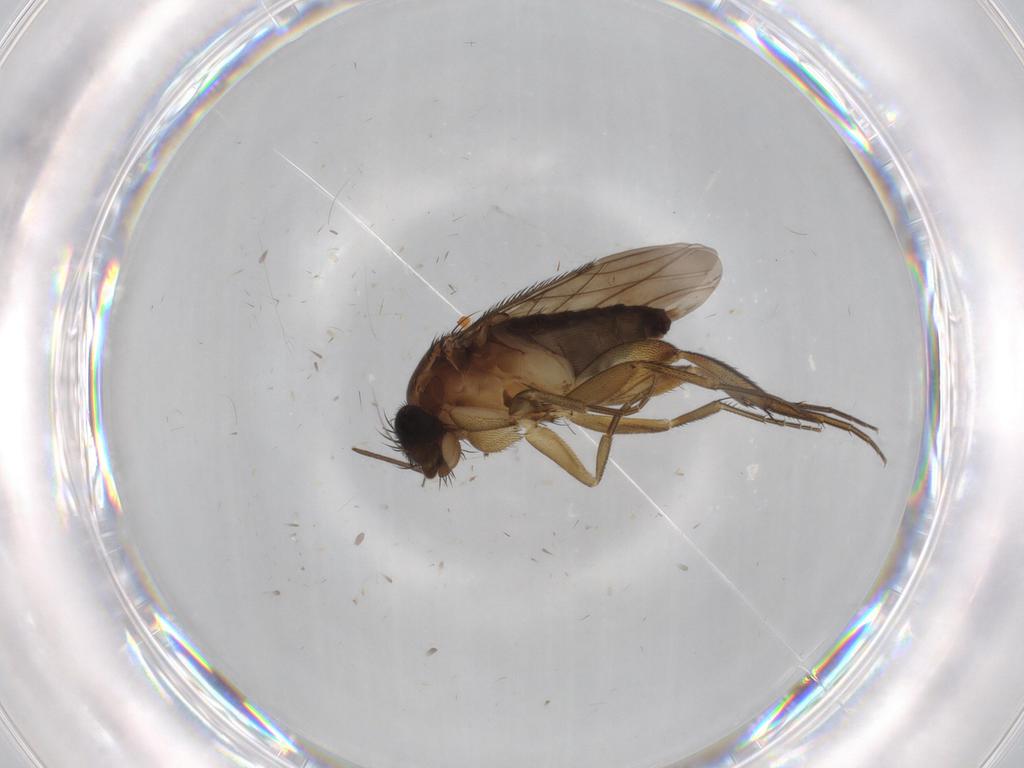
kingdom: Animalia
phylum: Arthropoda
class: Insecta
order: Diptera
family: Phoridae
